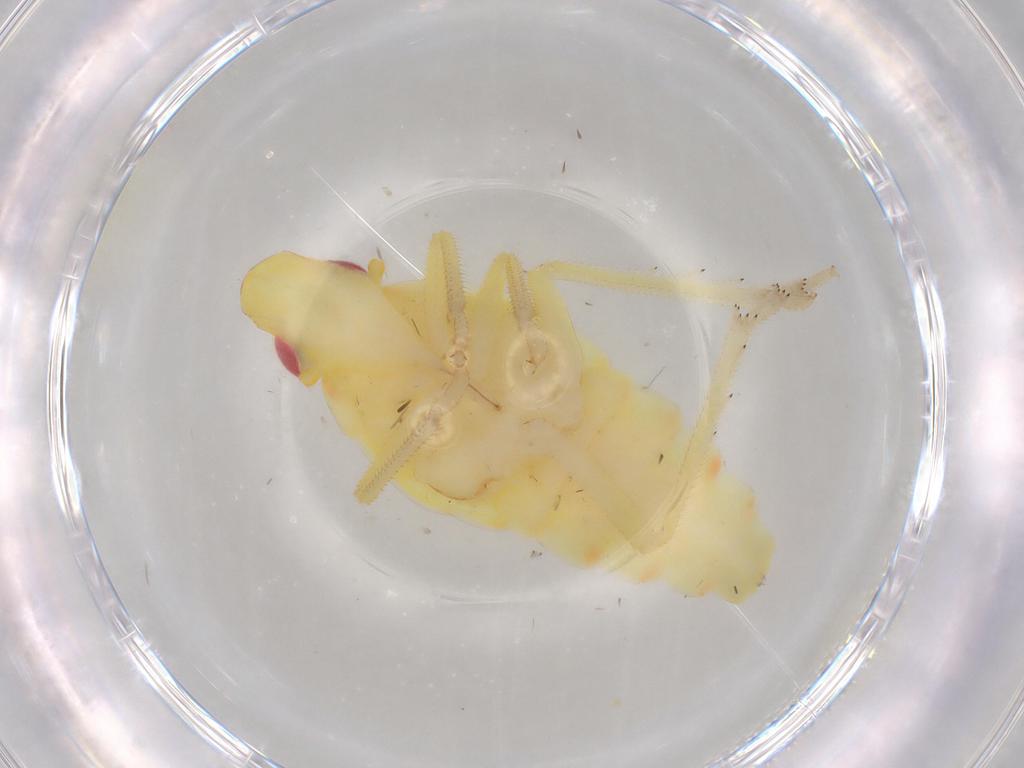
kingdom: Animalia
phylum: Arthropoda
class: Insecta
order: Hemiptera
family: Tropiduchidae
